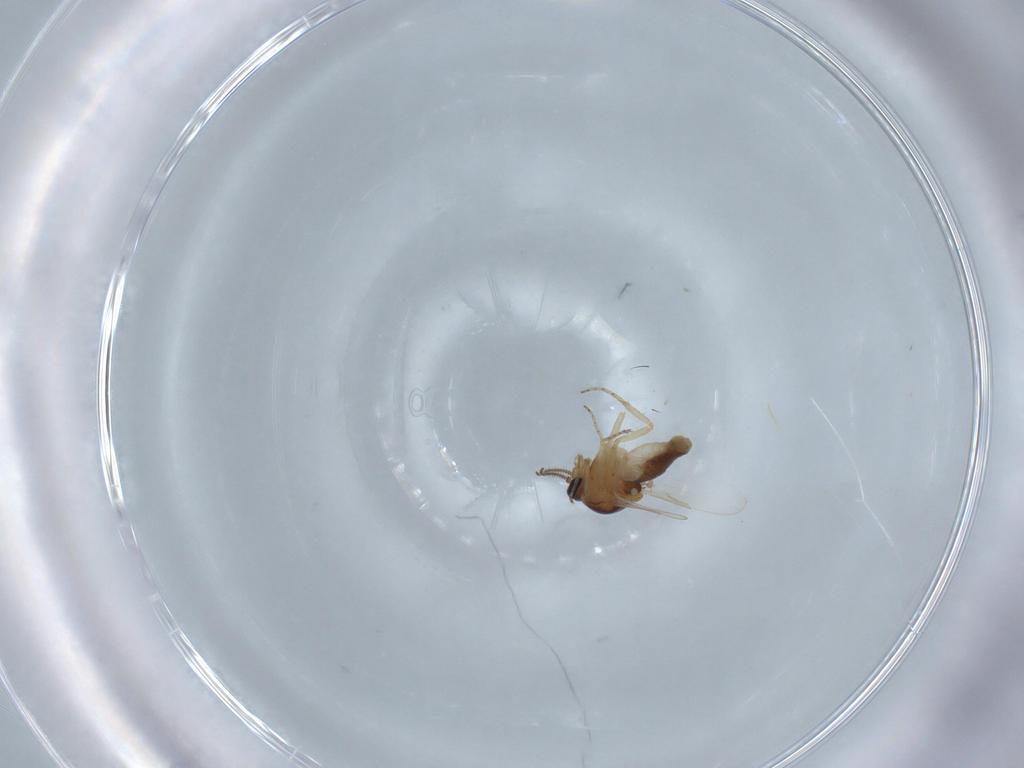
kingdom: Animalia
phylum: Arthropoda
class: Insecta
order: Diptera
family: Ceratopogonidae
